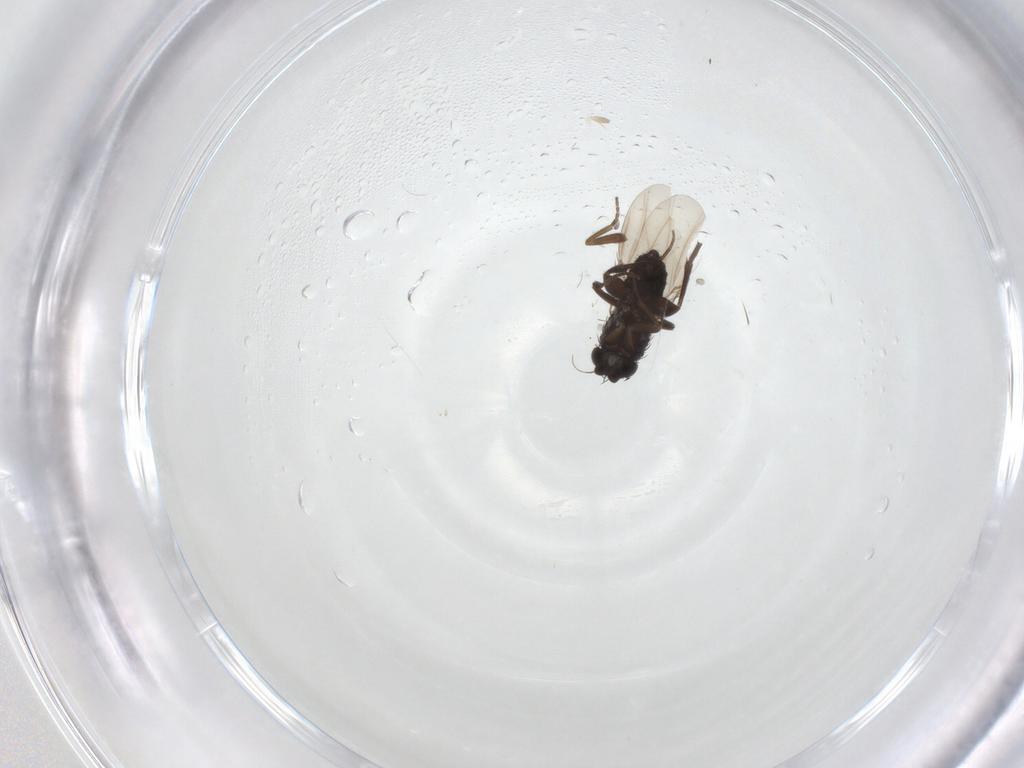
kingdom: Animalia
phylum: Arthropoda
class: Insecta
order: Diptera
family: Phoridae
